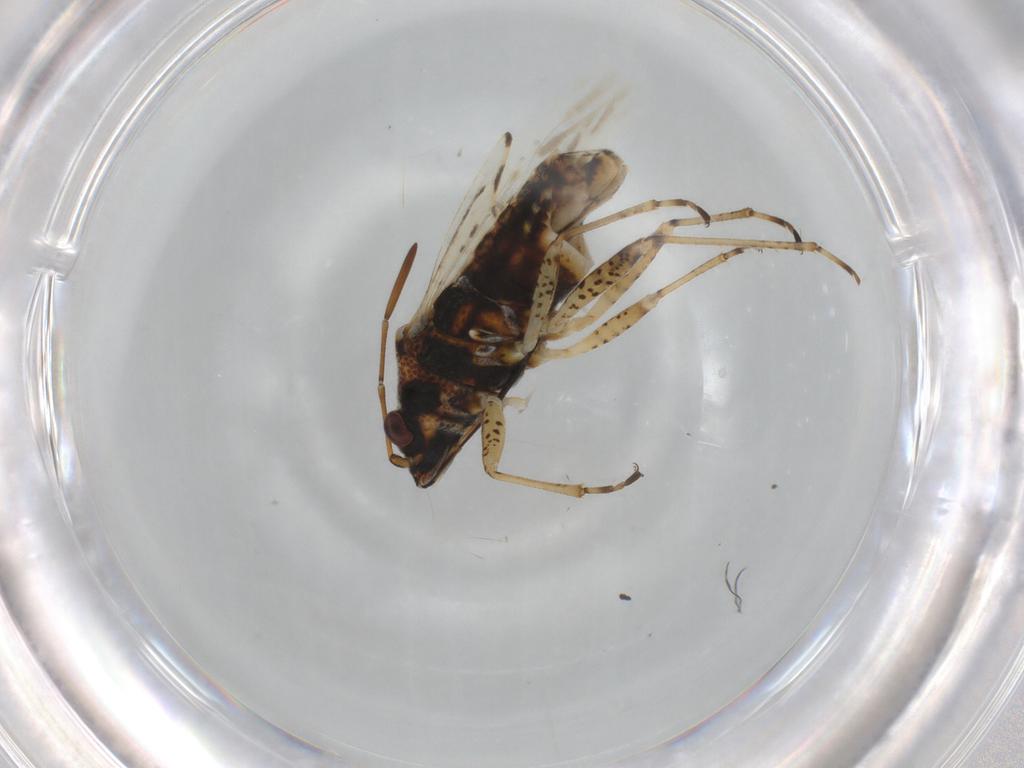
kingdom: Animalia
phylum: Arthropoda
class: Insecta
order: Hemiptera
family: Lygaeidae
